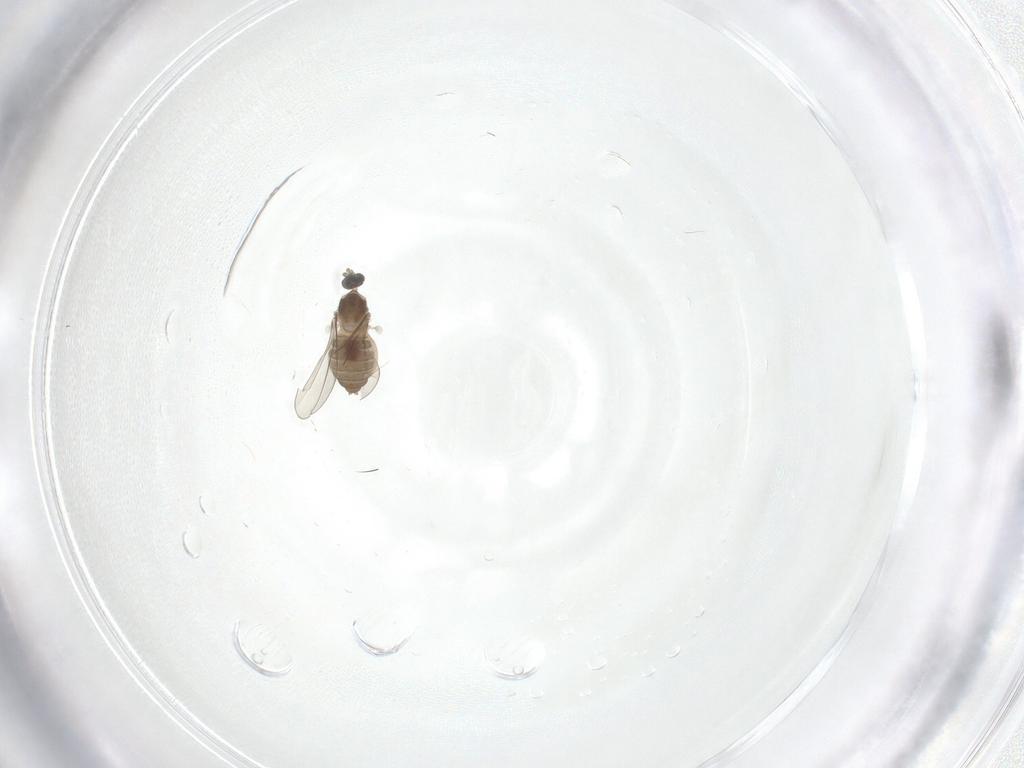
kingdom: Animalia
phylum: Arthropoda
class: Insecta
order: Diptera
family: Cecidomyiidae
